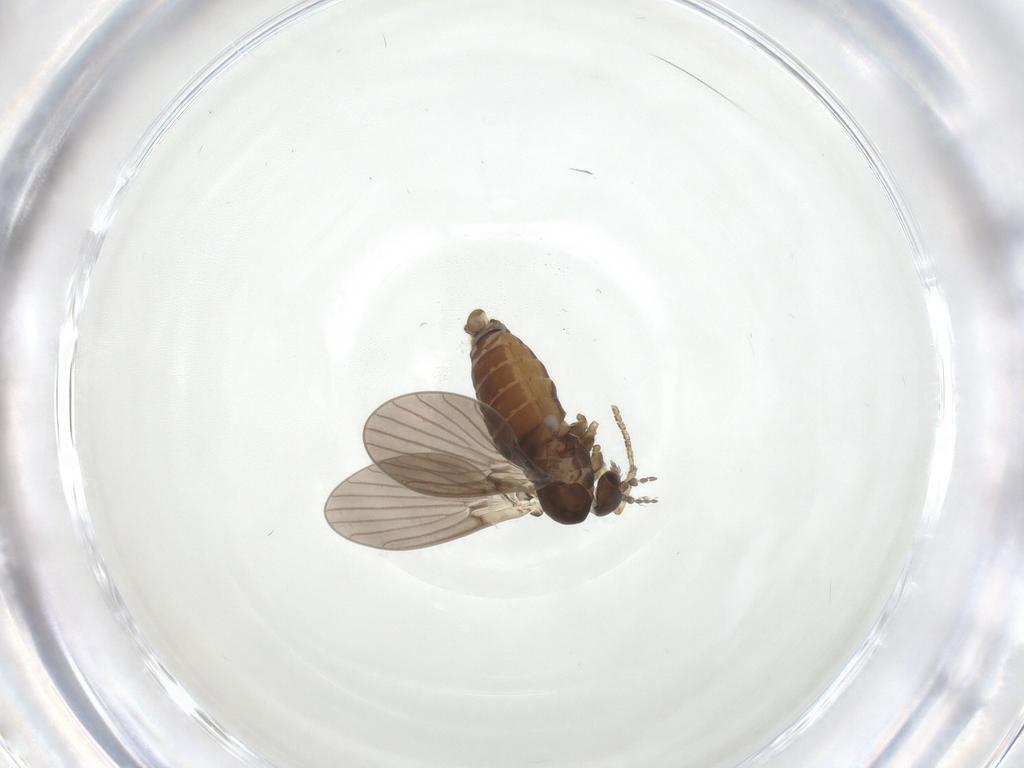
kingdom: Animalia
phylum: Arthropoda
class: Insecta
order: Diptera
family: Psychodidae
